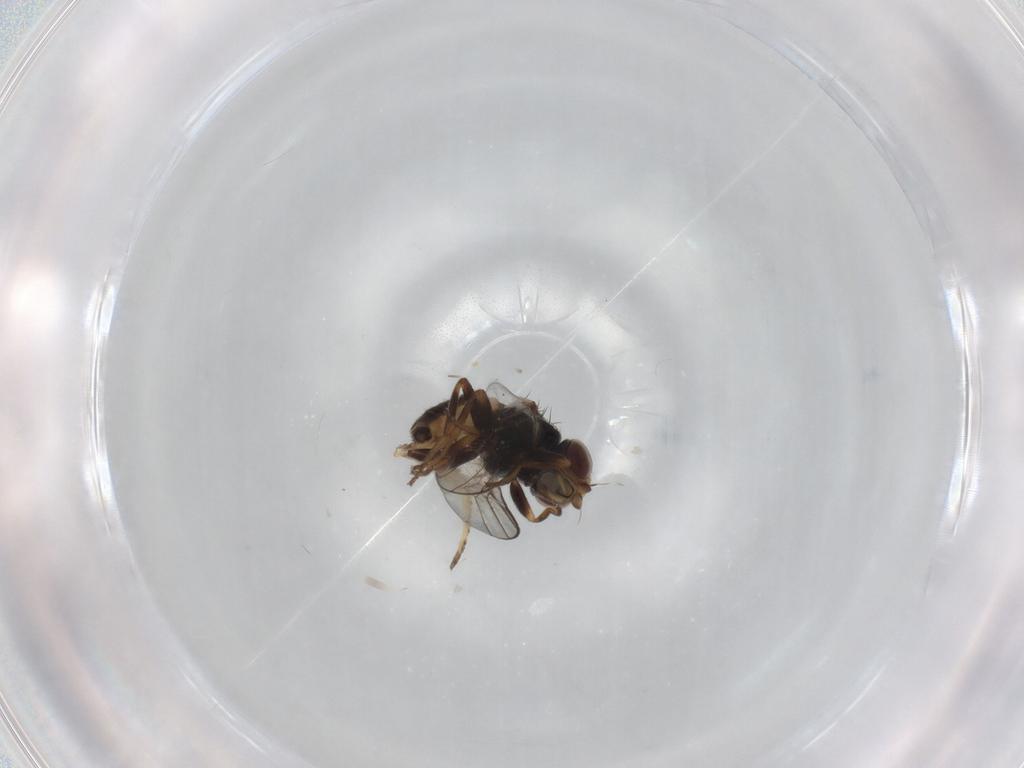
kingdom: Animalia
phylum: Arthropoda
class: Insecta
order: Diptera
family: Chloropidae
